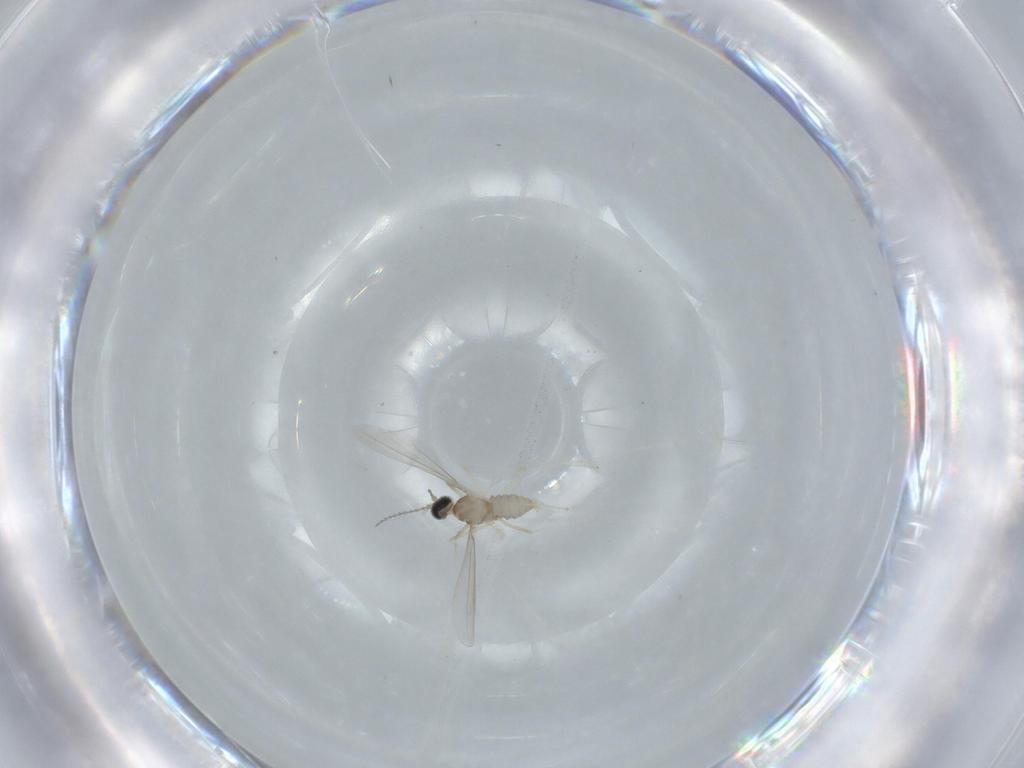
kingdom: Animalia
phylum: Arthropoda
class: Insecta
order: Diptera
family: Cecidomyiidae
